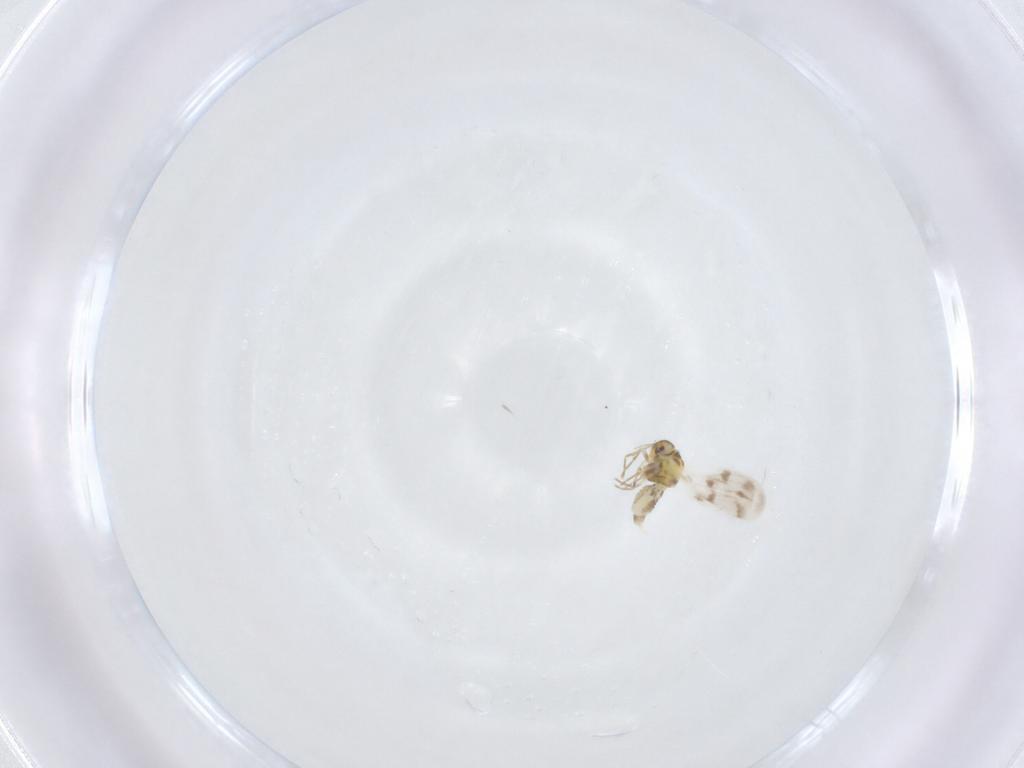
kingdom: Animalia
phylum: Arthropoda
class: Insecta
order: Hemiptera
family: Aleyrodidae
